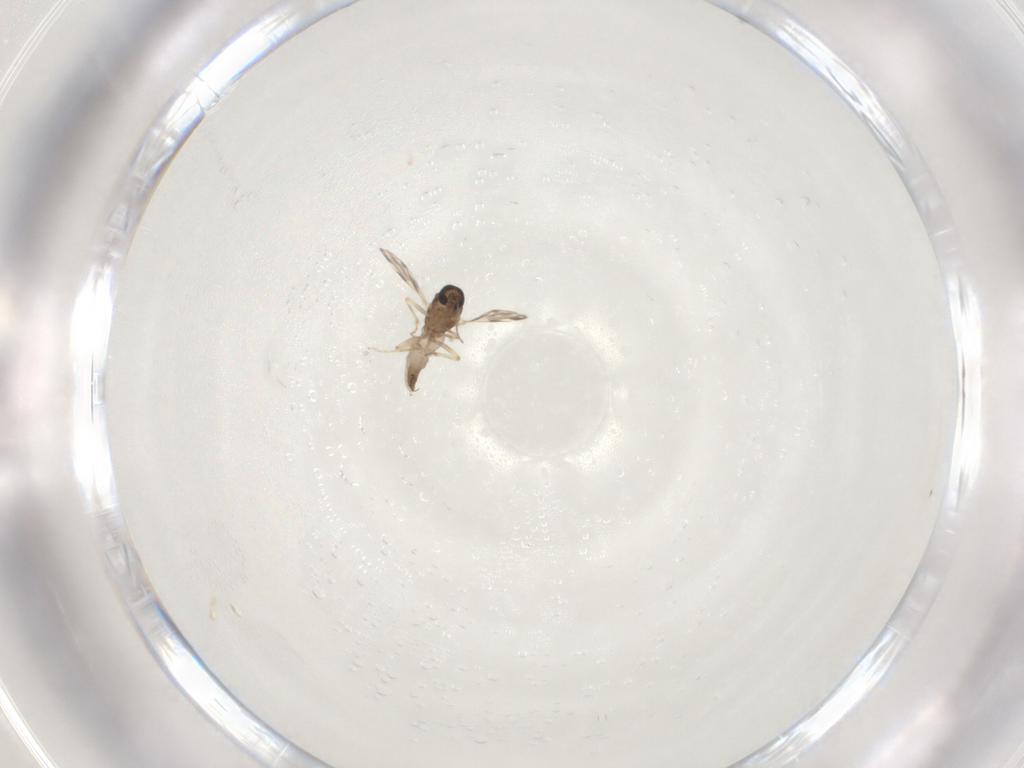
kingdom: Animalia
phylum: Arthropoda
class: Insecta
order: Diptera
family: Ceratopogonidae
